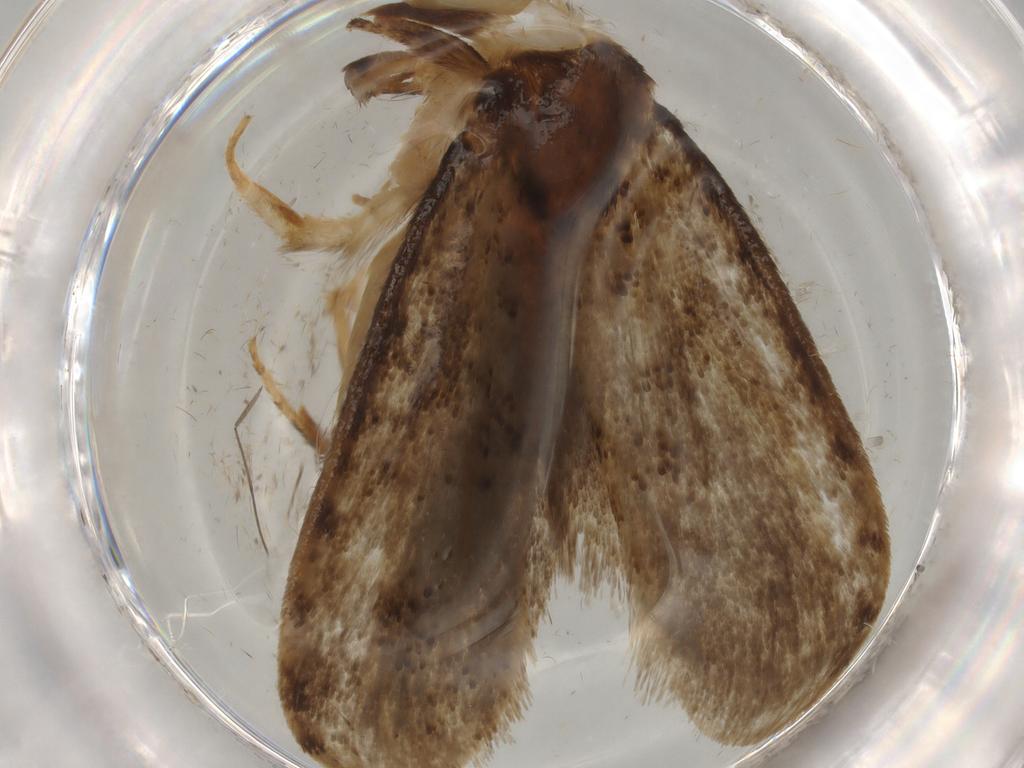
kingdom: Animalia
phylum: Arthropoda
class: Insecta
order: Lepidoptera
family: Tineidae
